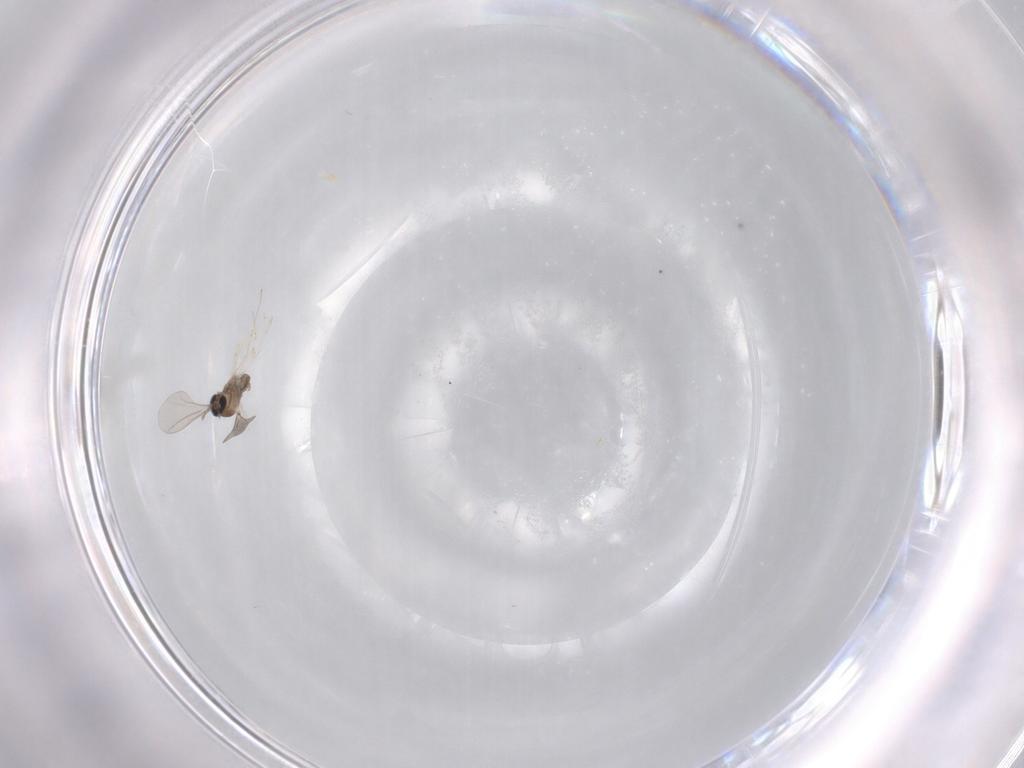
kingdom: Animalia
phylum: Arthropoda
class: Insecta
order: Diptera
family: Cecidomyiidae
